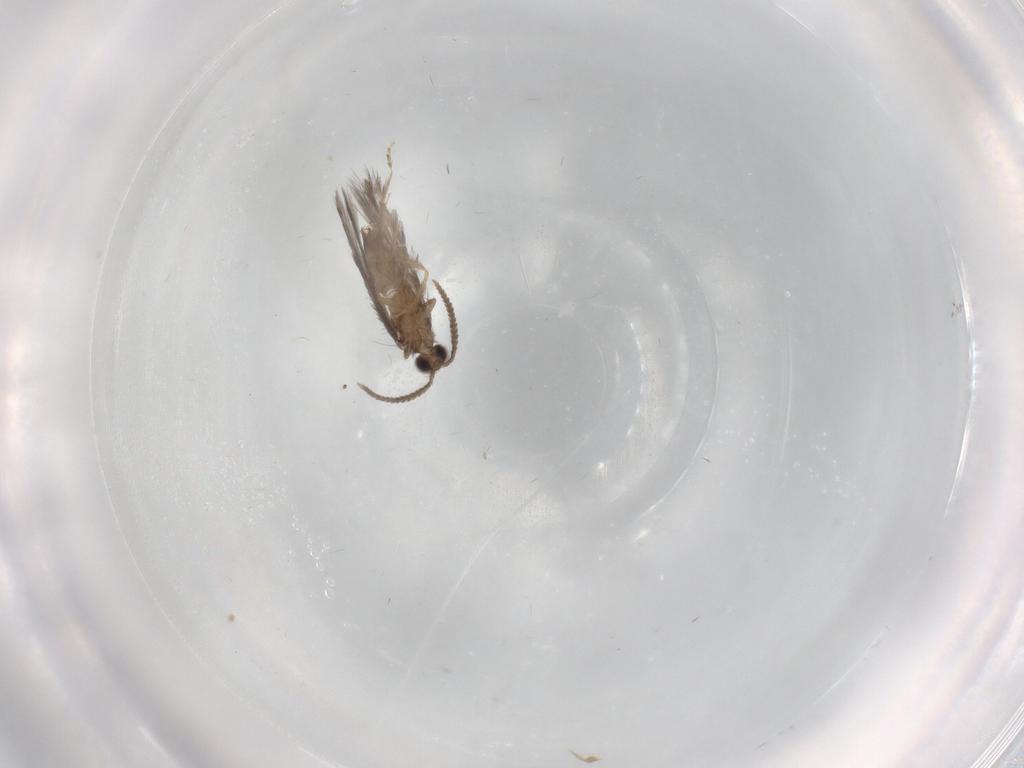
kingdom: Animalia
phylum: Arthropoda
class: Insecta
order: Trichoptera
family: Hydroptilidae
